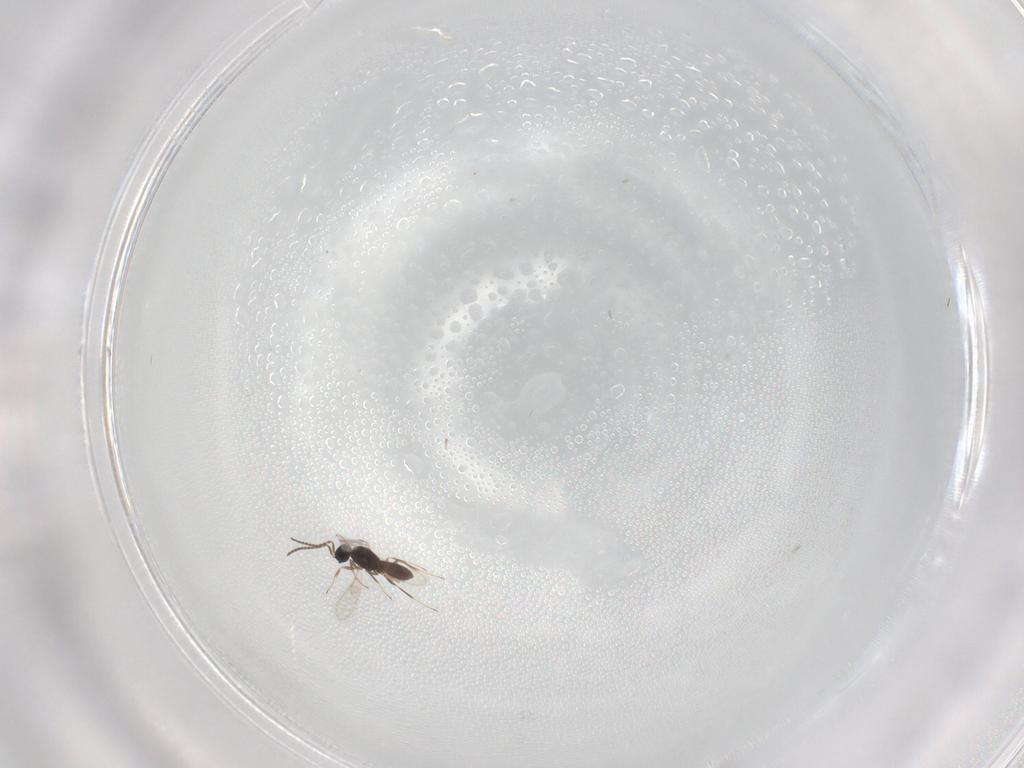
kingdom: Animalia
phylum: Arthropoda
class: Insecta
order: Hymenoptera
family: Scelionidae
